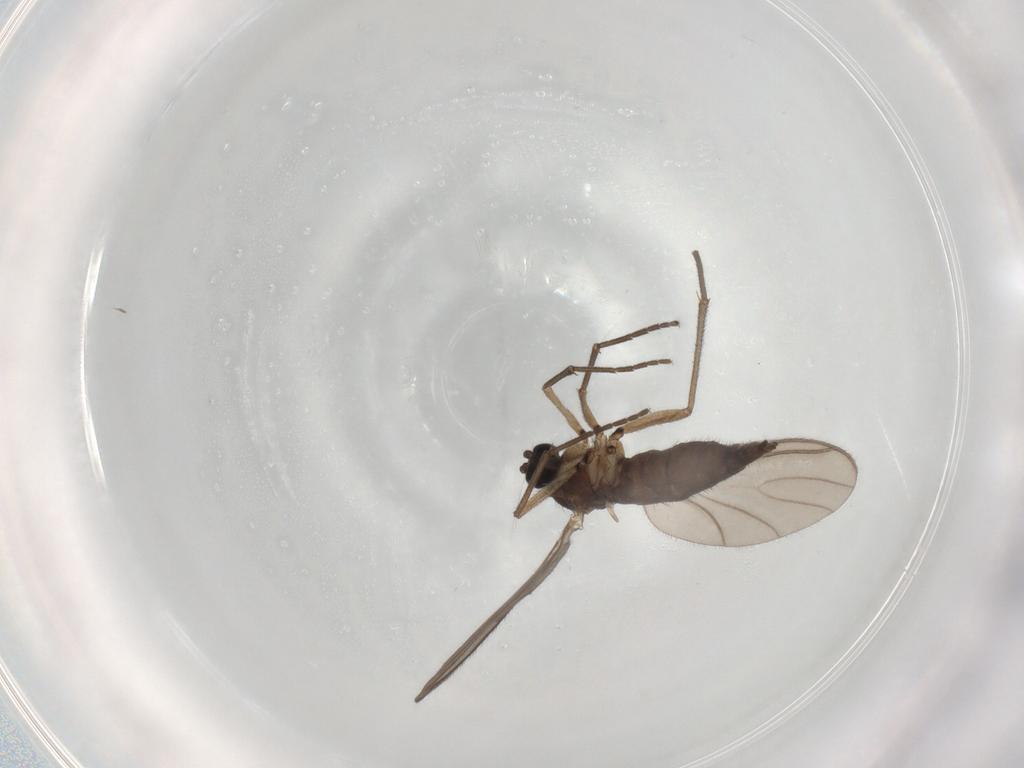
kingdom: Animalia
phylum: Arthropoda
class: Insecta
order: Diptera
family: Sciaridae
